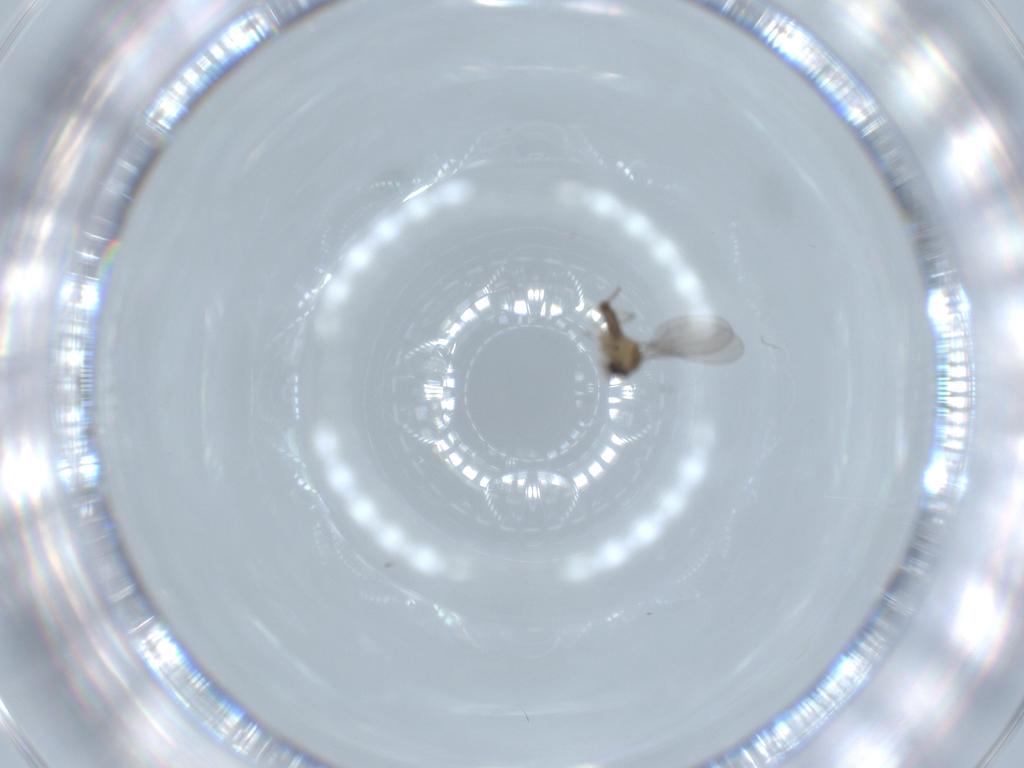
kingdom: Animalia
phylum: Arthropoda
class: Insecta
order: Diptera
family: Cecidomyiidae
